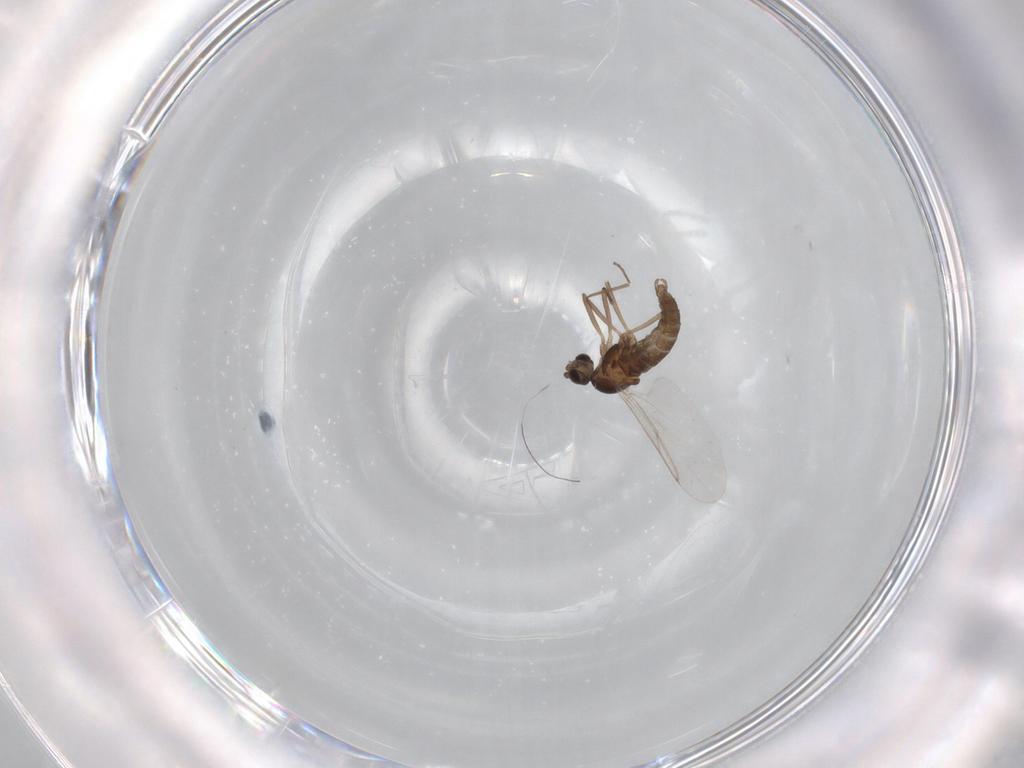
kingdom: Animalia
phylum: Arthropoda
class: Insecta
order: Diptera
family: Cecidomyiidae
